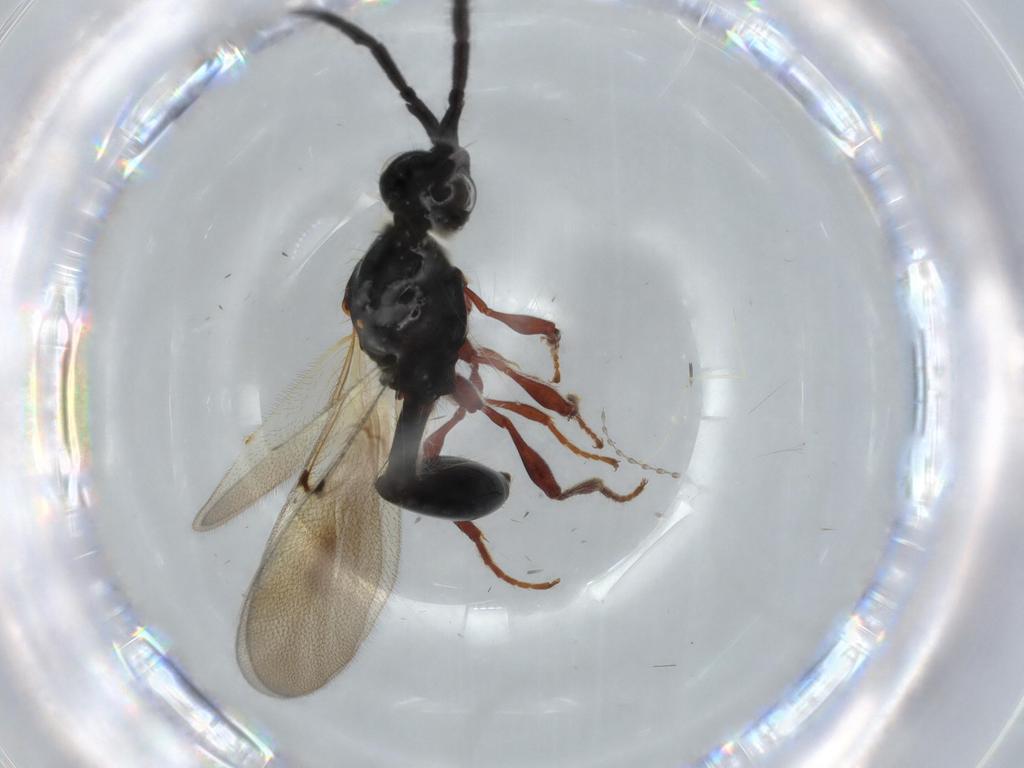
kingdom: Animalia
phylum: Arthropoda
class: Insecta
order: Hymenoptera
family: Diapriidae
